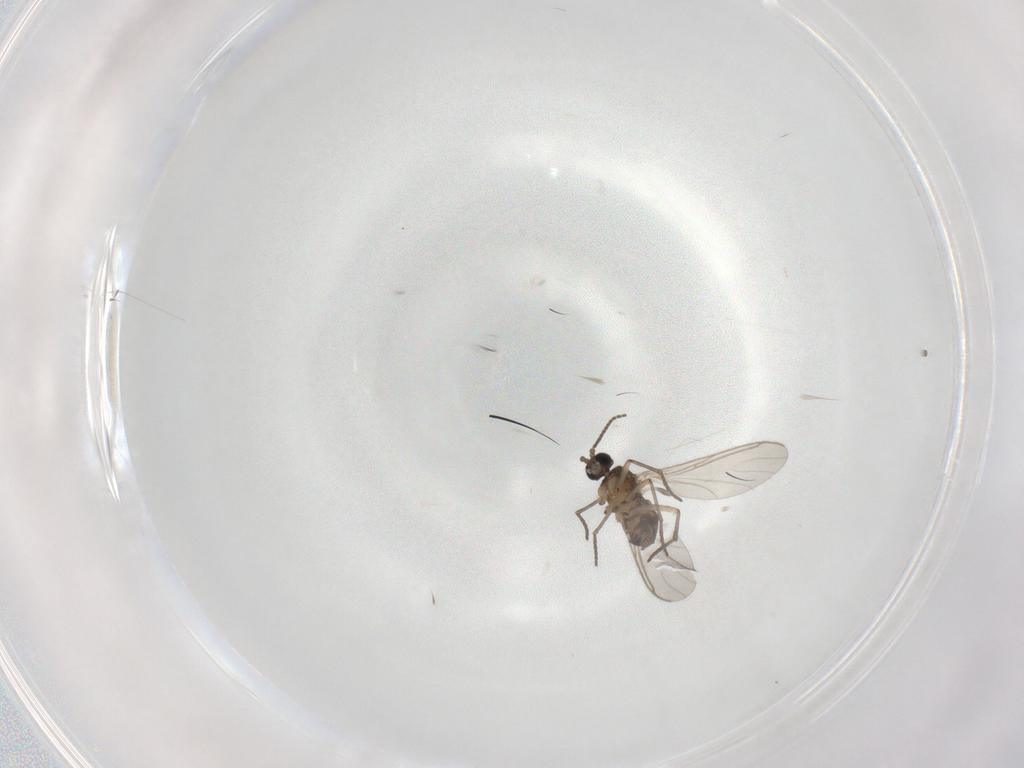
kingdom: Animalia
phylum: Arthropoda
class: Insecta
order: Diptera
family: Sciaridae
